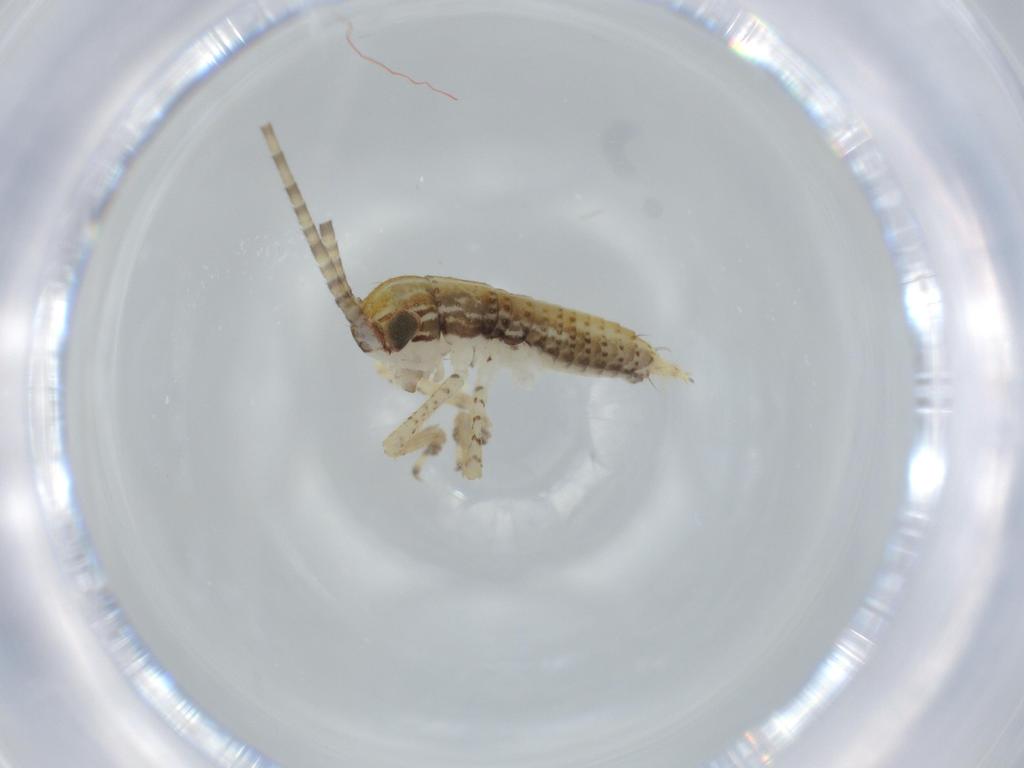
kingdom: Animalia
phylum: Arthropoda
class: Insecta
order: Orthoptera
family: Gryllidae
